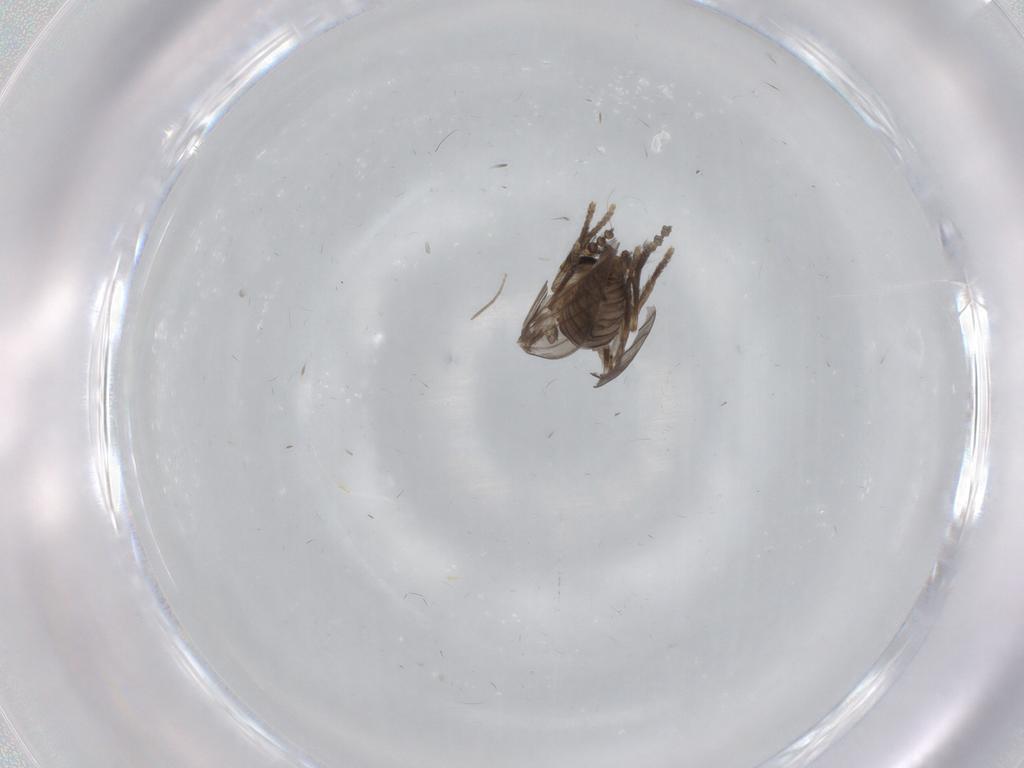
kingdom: Animalia
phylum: Arthropoda
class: Insecta
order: Diptera
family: Psychodidae
